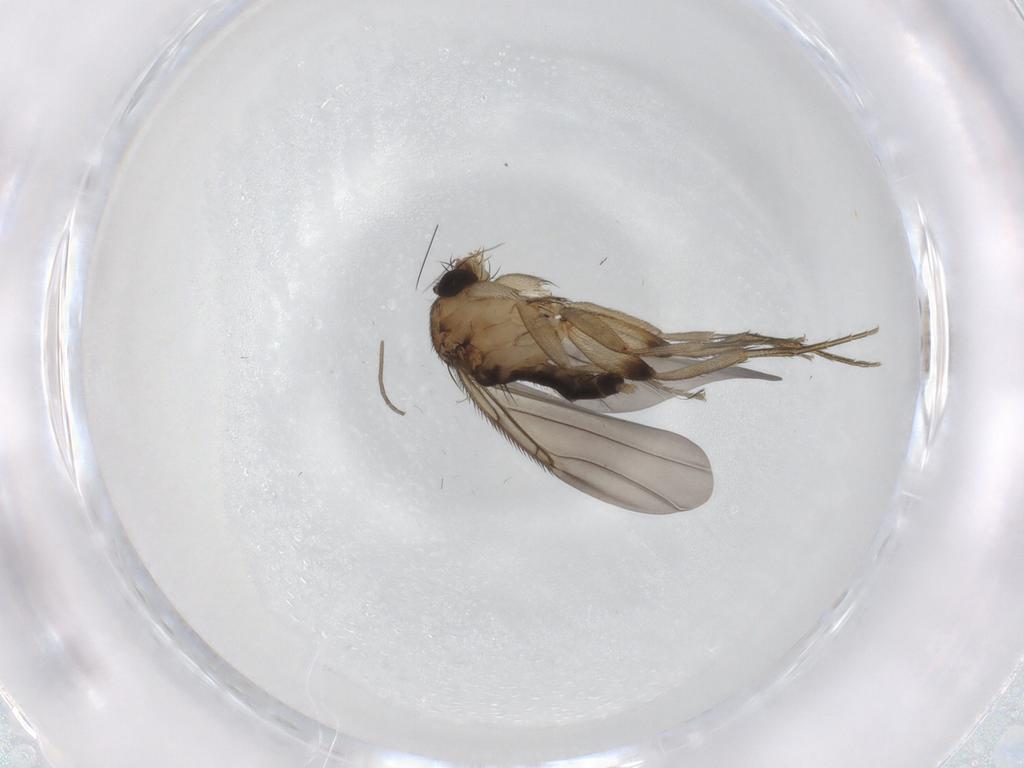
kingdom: Animalia
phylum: Arthropoda
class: Insecta
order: Diptera
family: Phoridae
